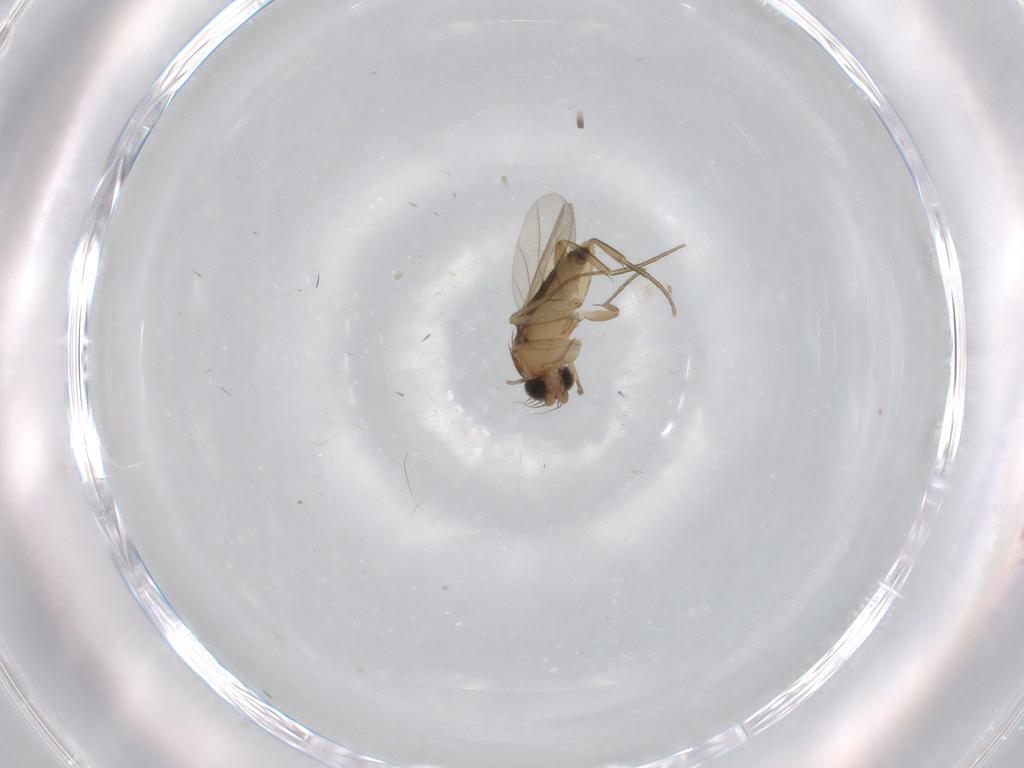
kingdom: Animalia
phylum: Arthropoda
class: Insecta
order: Diptera
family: Phoridae
